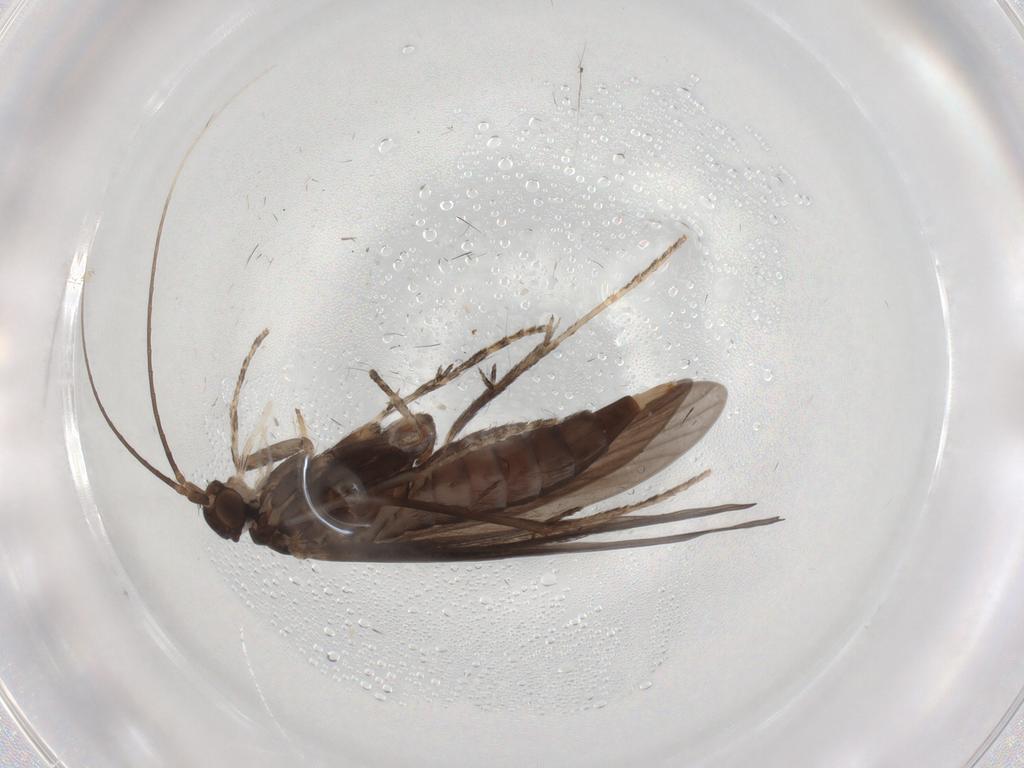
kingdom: Animalia
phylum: Arthropoda
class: Insecta
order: Trichoptera
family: Xiphocentronidae
